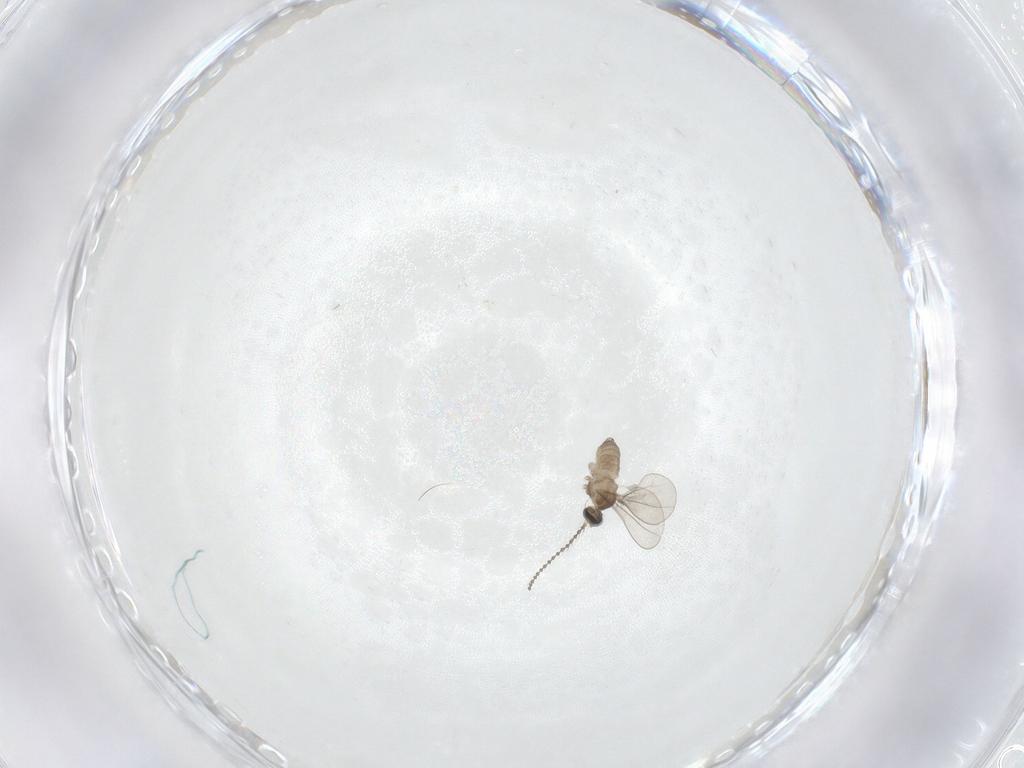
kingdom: Animalia
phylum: Arthropoda
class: Insecta
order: Diptera
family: Cecidomyiidae
